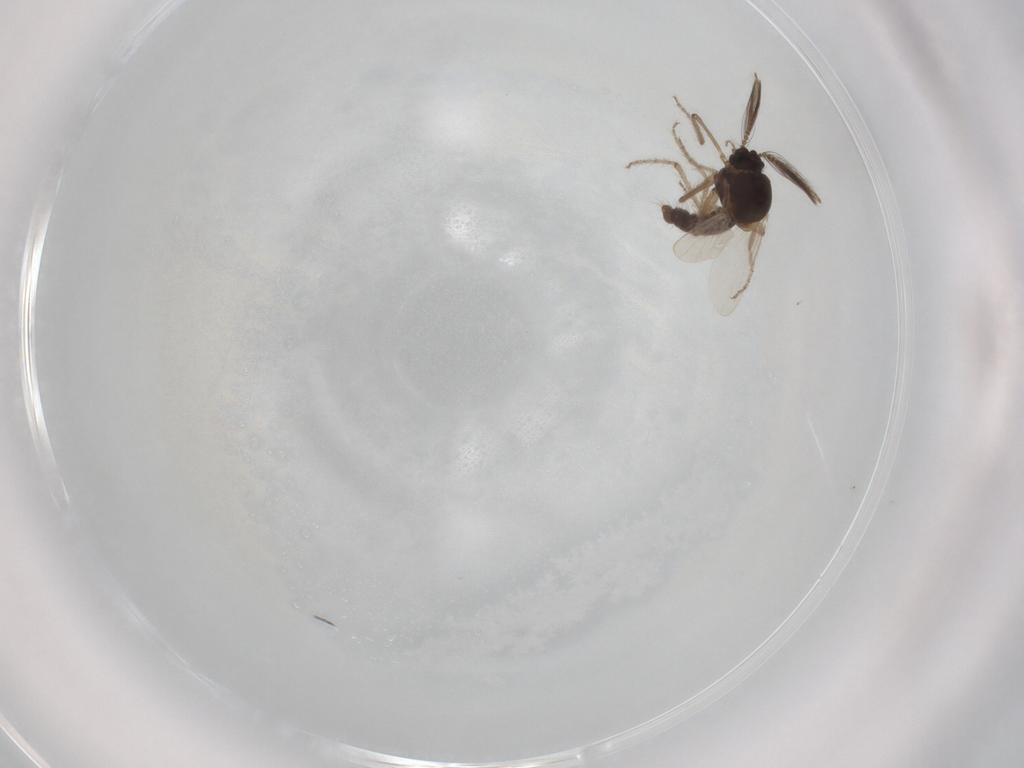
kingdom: Animalia
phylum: Arthropoda
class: Insecta
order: Diptera
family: Ceratopogonidae
